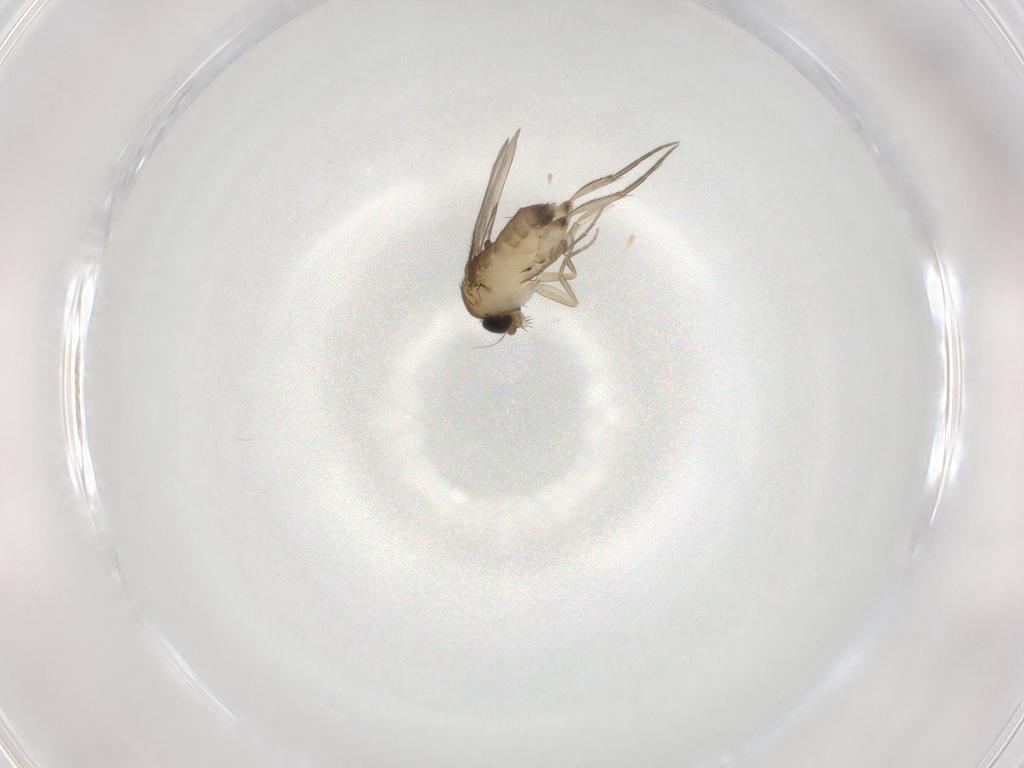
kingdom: Animalia
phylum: Arthropoda
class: Insecta
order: Diptera
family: Phoridae
